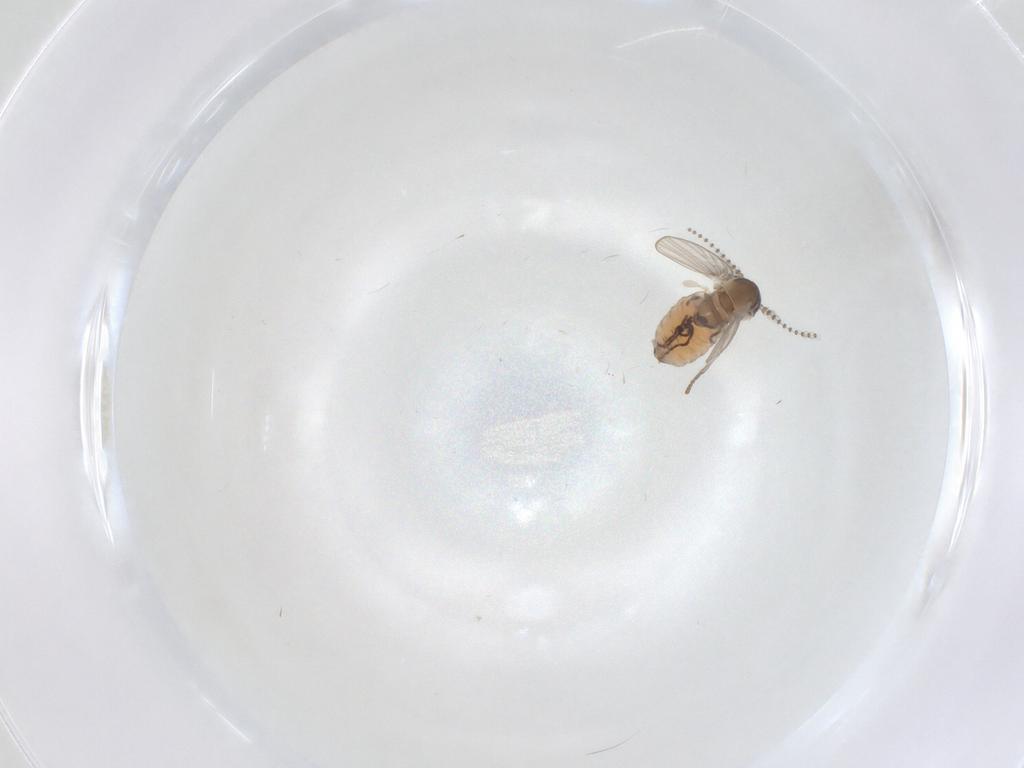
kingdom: Animalia
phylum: Arthropoda
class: Insecta
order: Diptera
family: Psychodidae
